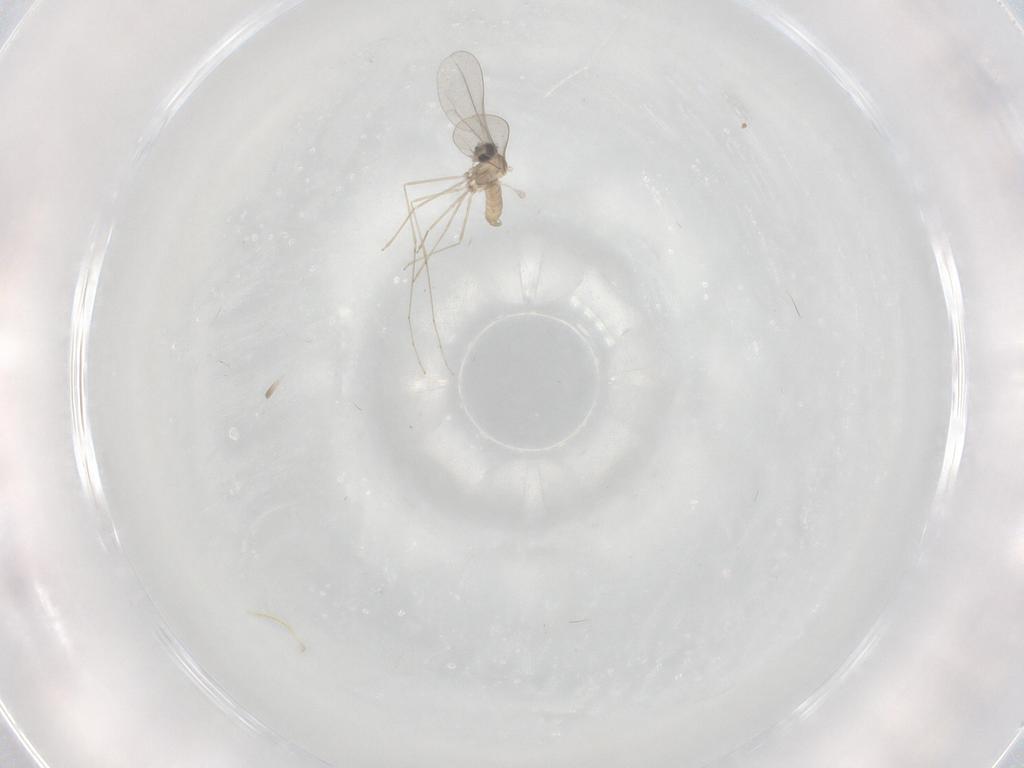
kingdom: Animalia
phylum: Arthropoda
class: Insecta
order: Diptera
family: Cecidomyiidae
